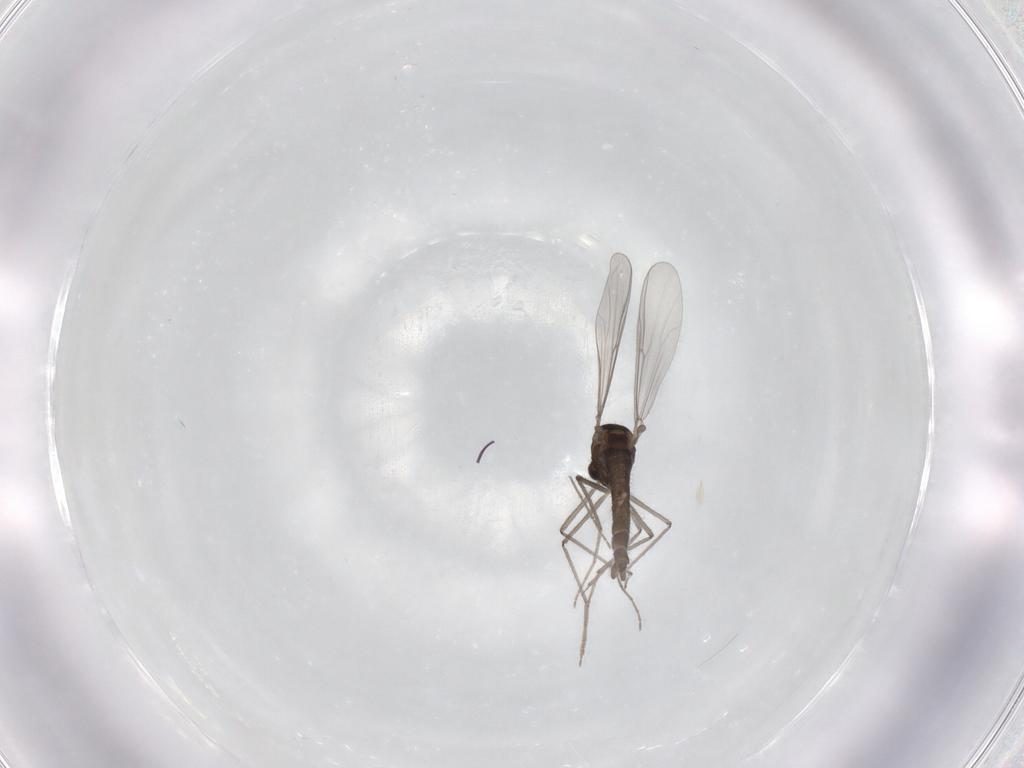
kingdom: Animalia
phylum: Arthropoda
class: Insecta
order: Diptera
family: Chironomidae
